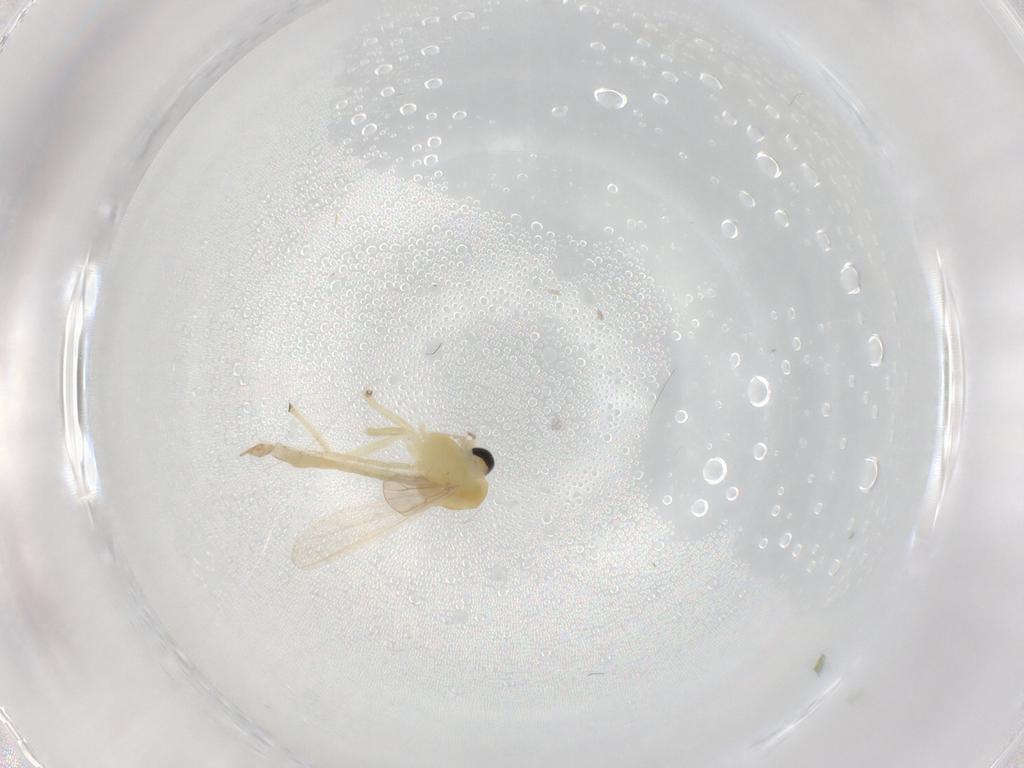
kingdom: Animalia
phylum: Arthropoda
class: Insecta
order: Diptera
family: Chironomidae
